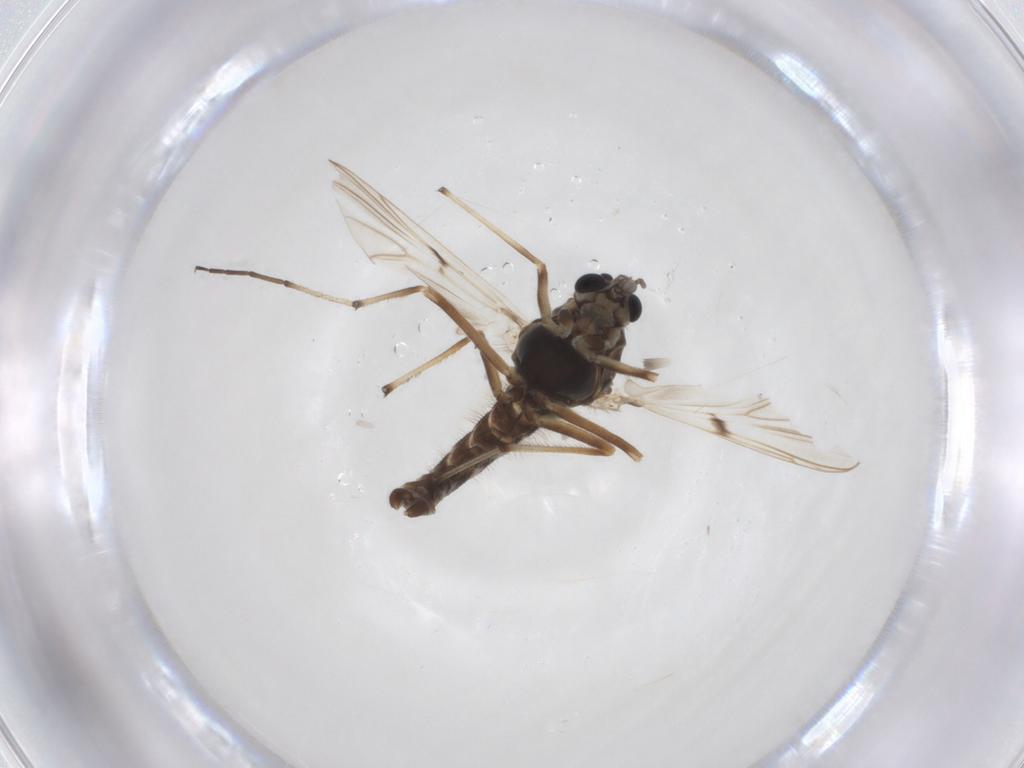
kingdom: Animalia
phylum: Arthropoda
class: Insecta
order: Diptera
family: Chironomidae
